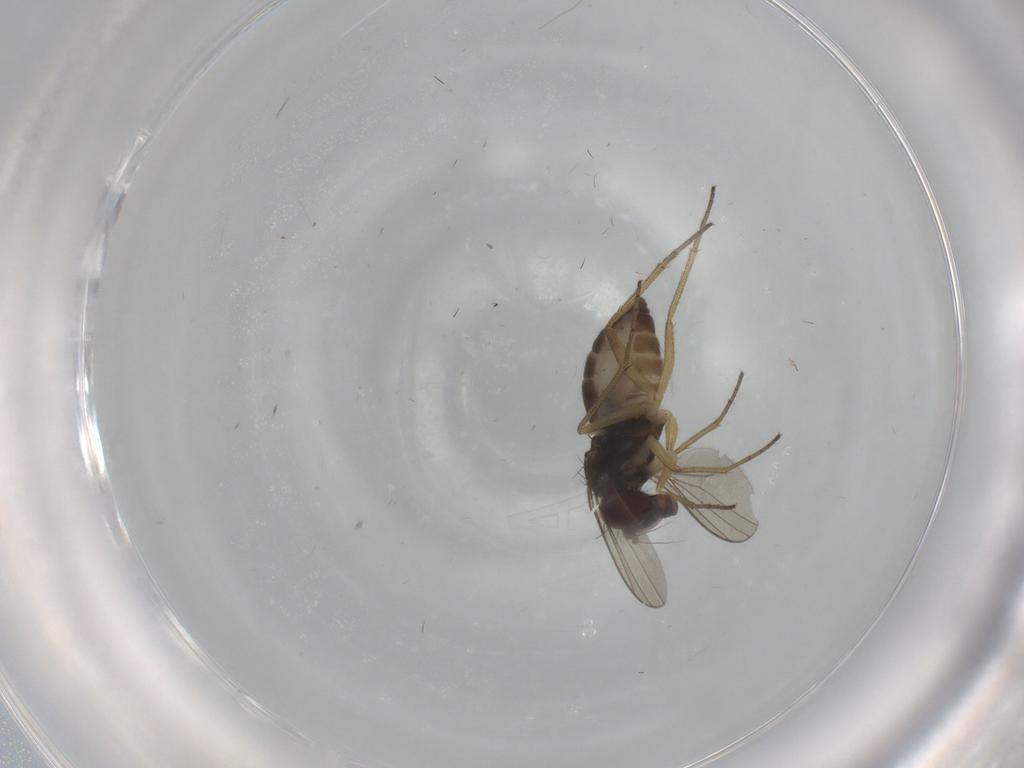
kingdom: Animalia
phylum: Arthropoda
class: Insecta
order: Diptera
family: Dolichopodidae
